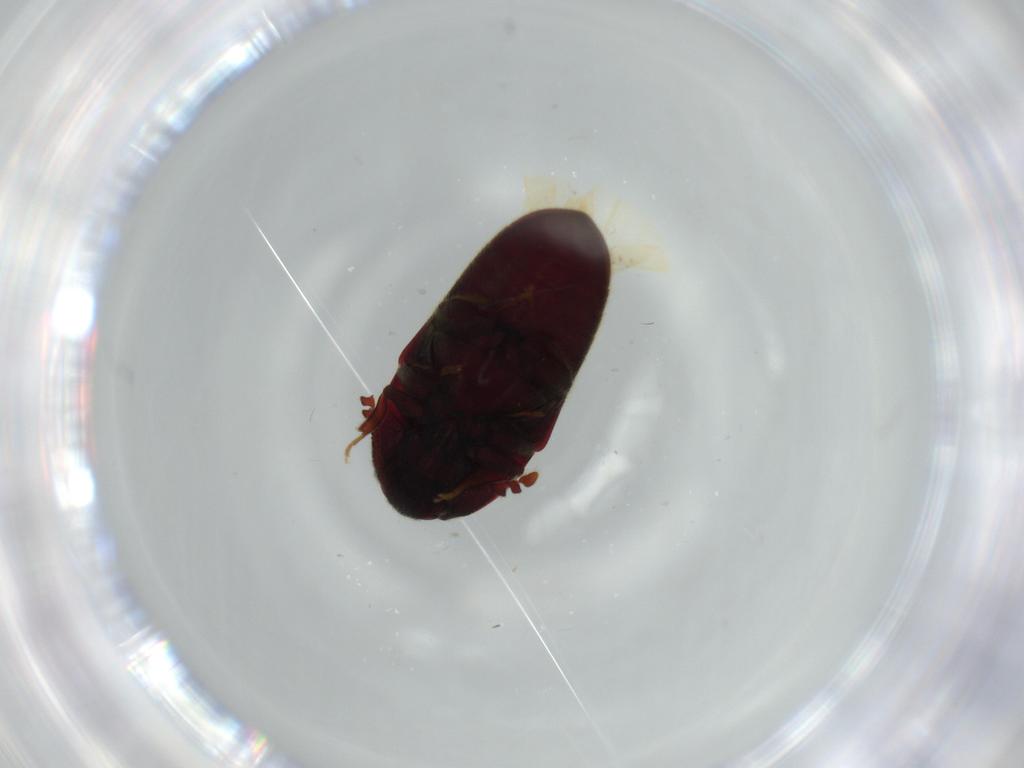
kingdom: Animalia
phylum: Arthropoda
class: Insecta
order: Coleoptera
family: Throscidae
